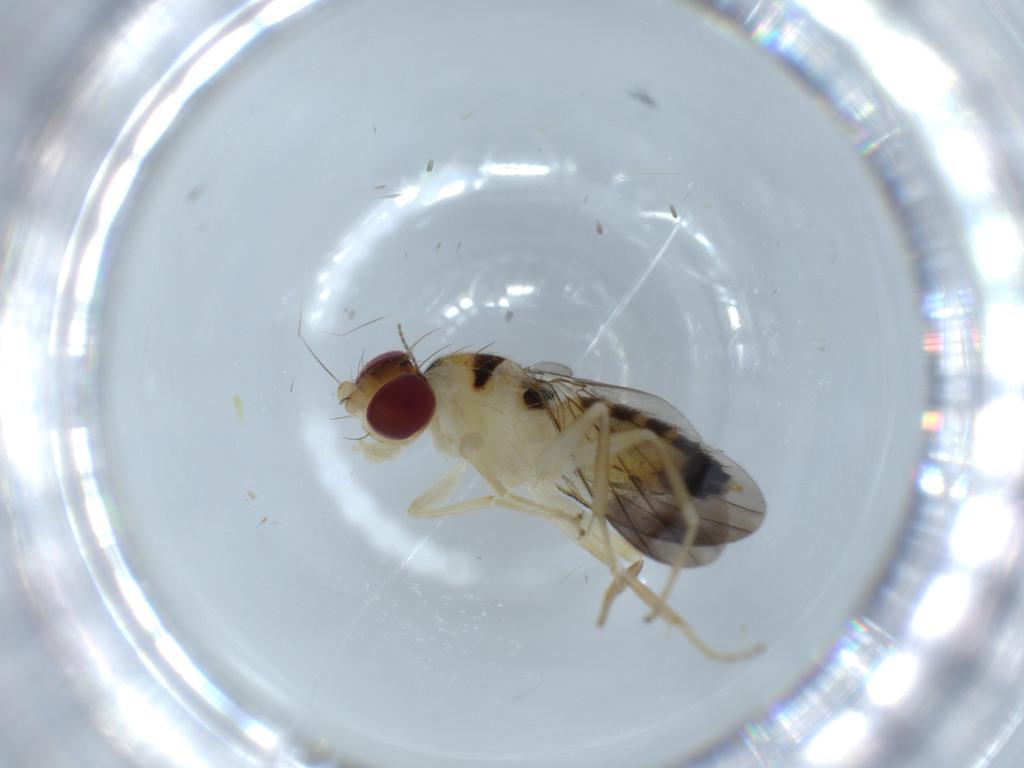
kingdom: Animalia
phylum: Arthropoda
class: Insecta
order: Diptera
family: Clusiidae
